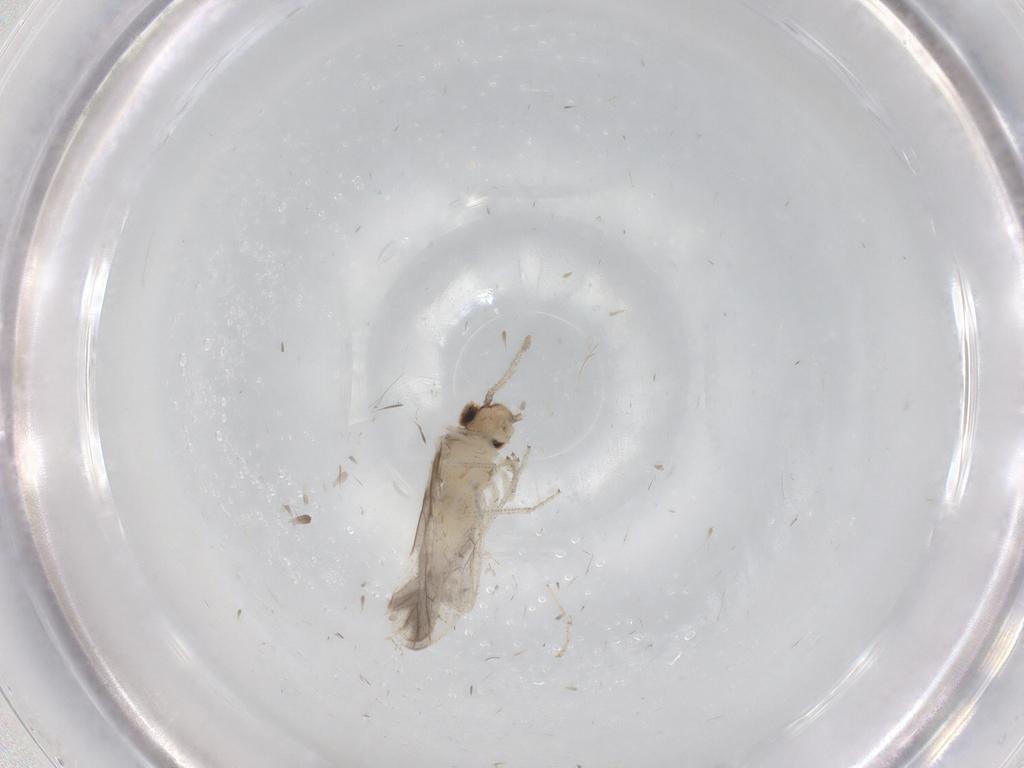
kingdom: Animalia
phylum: Arthropoda
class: Insecta
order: Psocodea
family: Caeciliusidae
